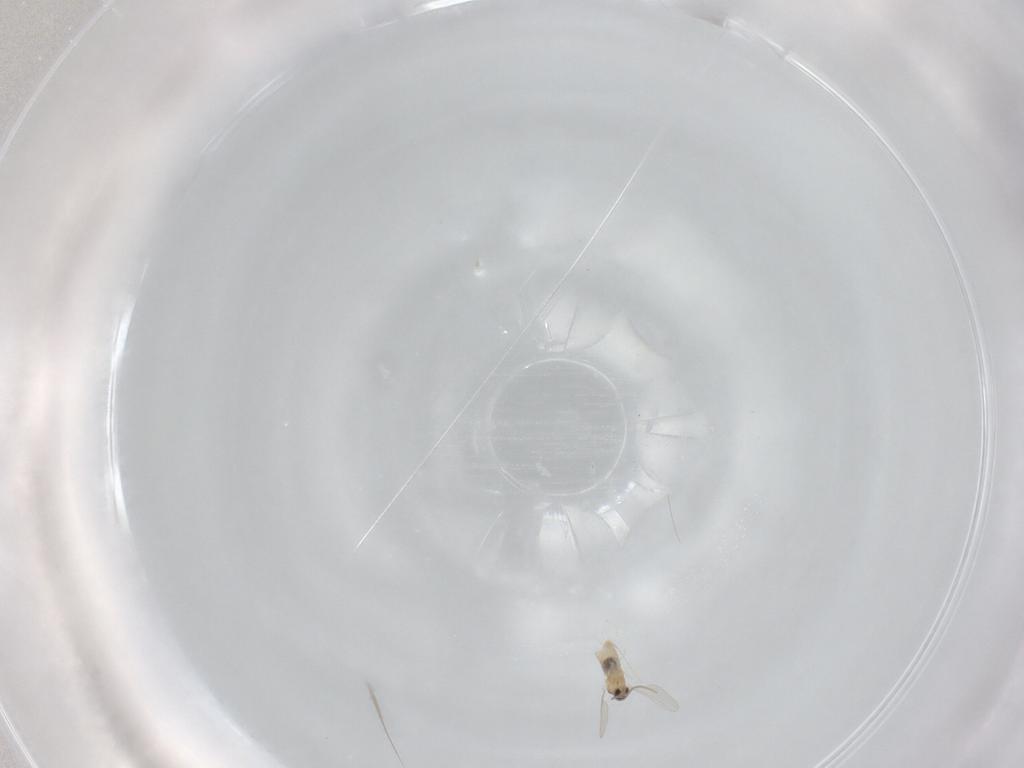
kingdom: Animalia
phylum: Arthropoda
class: Insecta
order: Diptera
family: Cecidomyiidae
